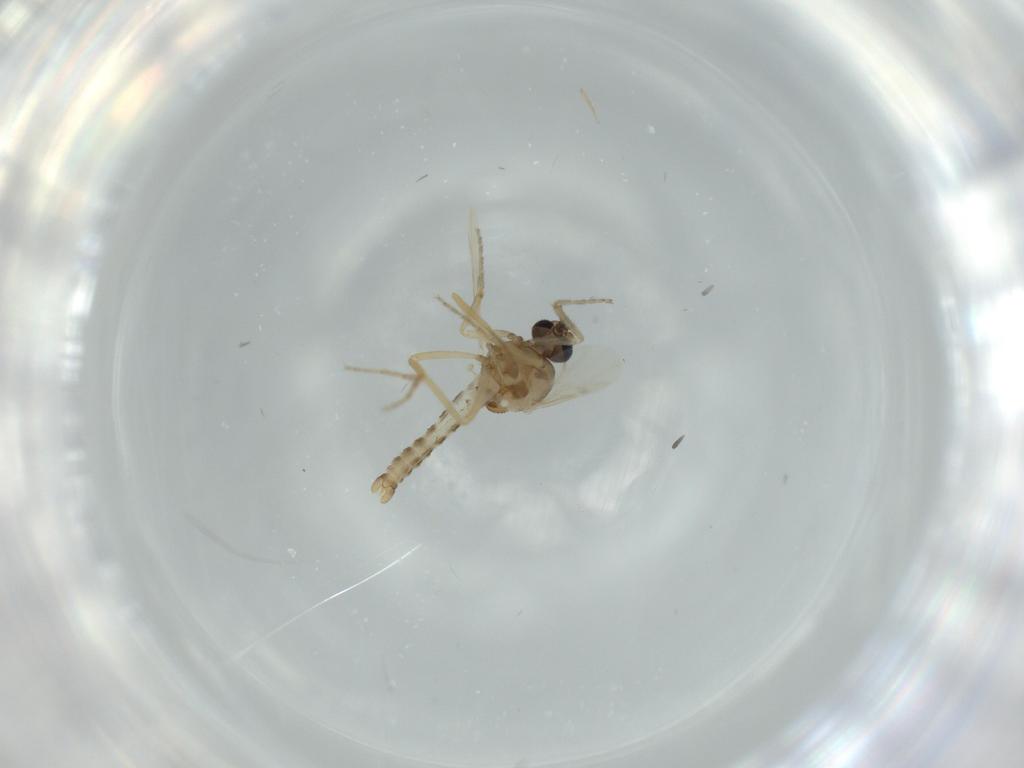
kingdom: Animalia
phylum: Arthropoda
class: Insecta
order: Diptera
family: Ceratopogonidae
